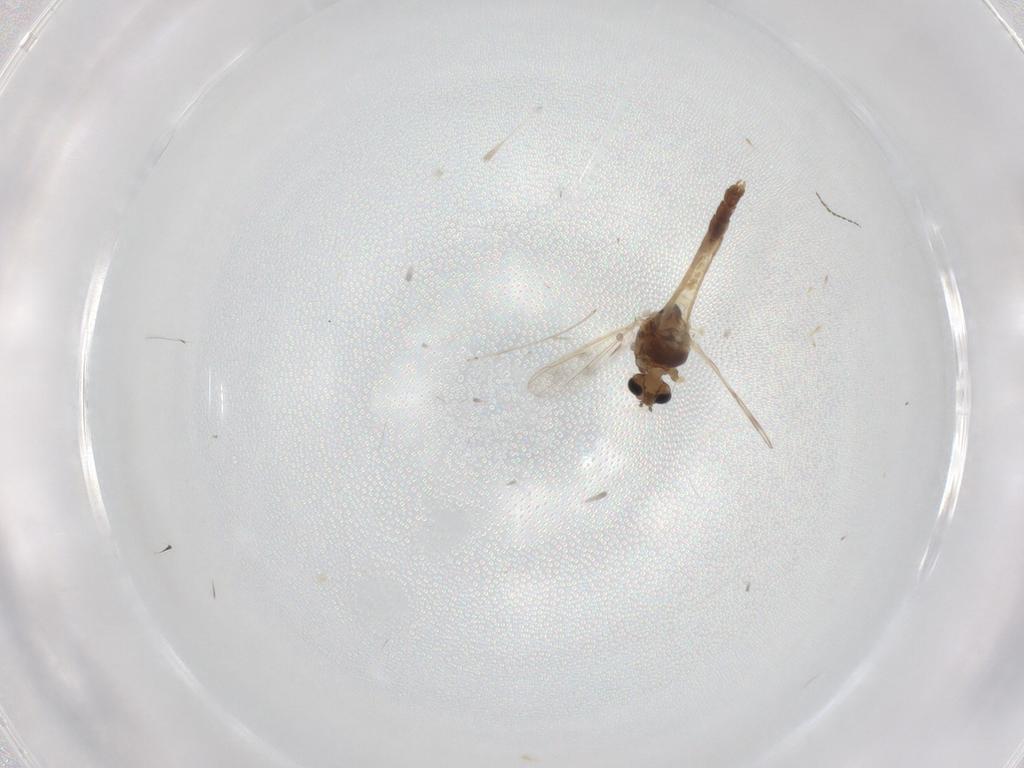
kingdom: Animalia
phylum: Arthropoda
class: Insecta
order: Diptera
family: Cecidomyiidae
